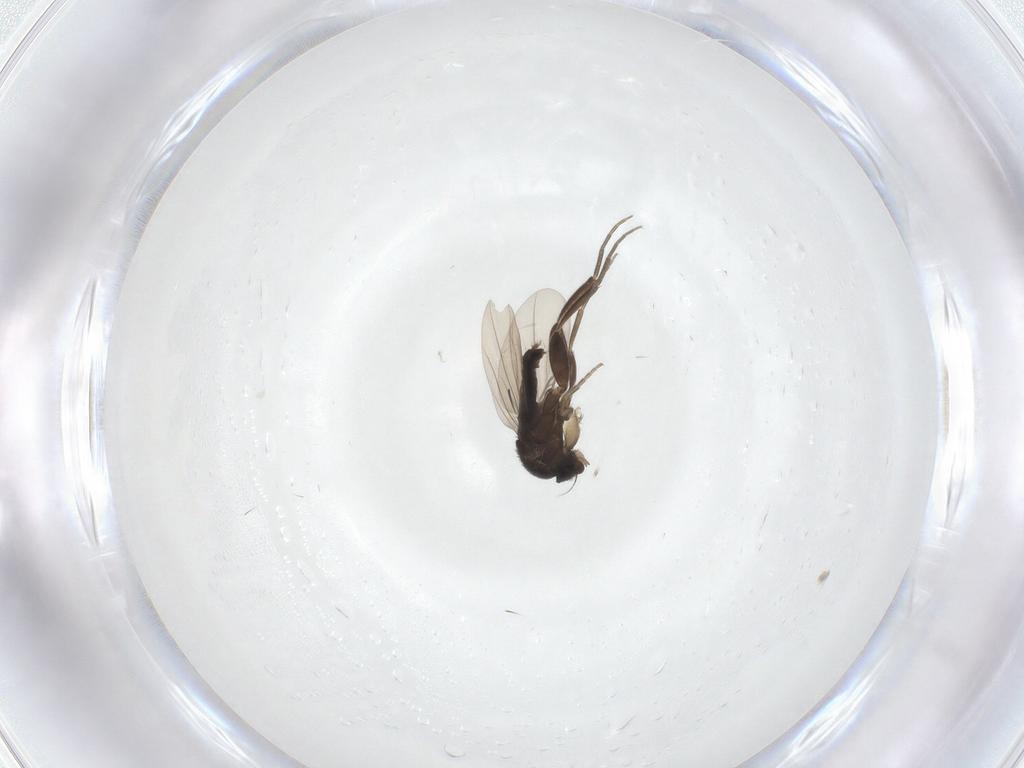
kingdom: Animalia
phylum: Arthropoda
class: Insecta
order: Diptera
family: Phoridae
